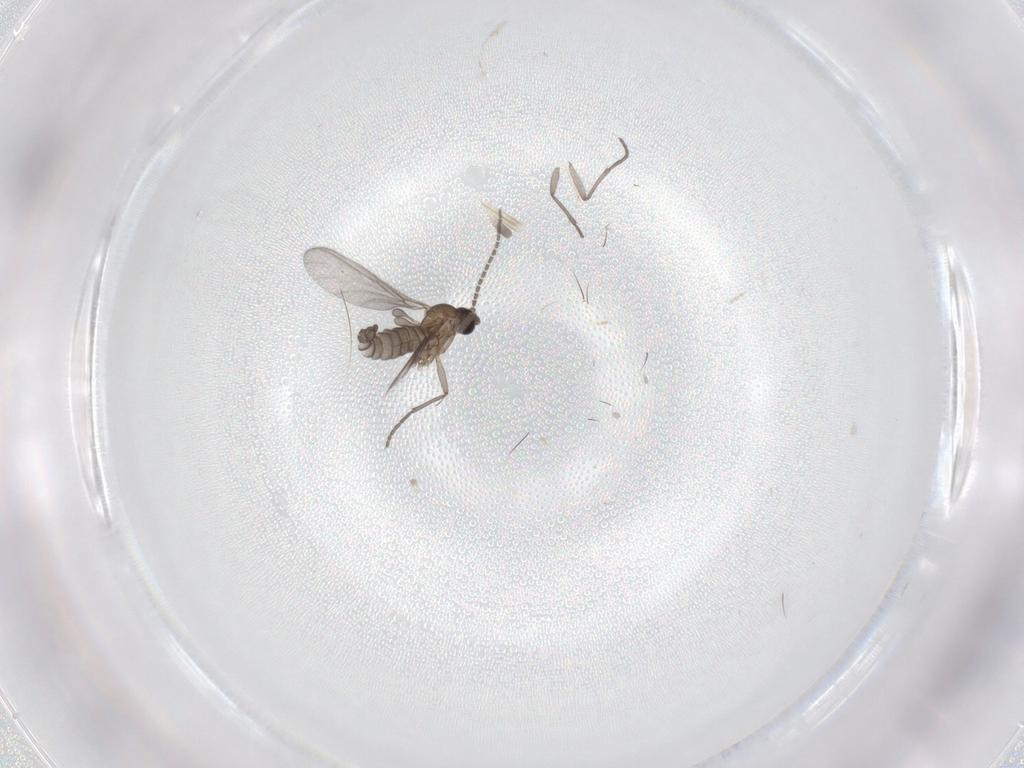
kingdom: Animalia
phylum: Arthropoda
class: Insecta
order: Diptera
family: Sciaridae
